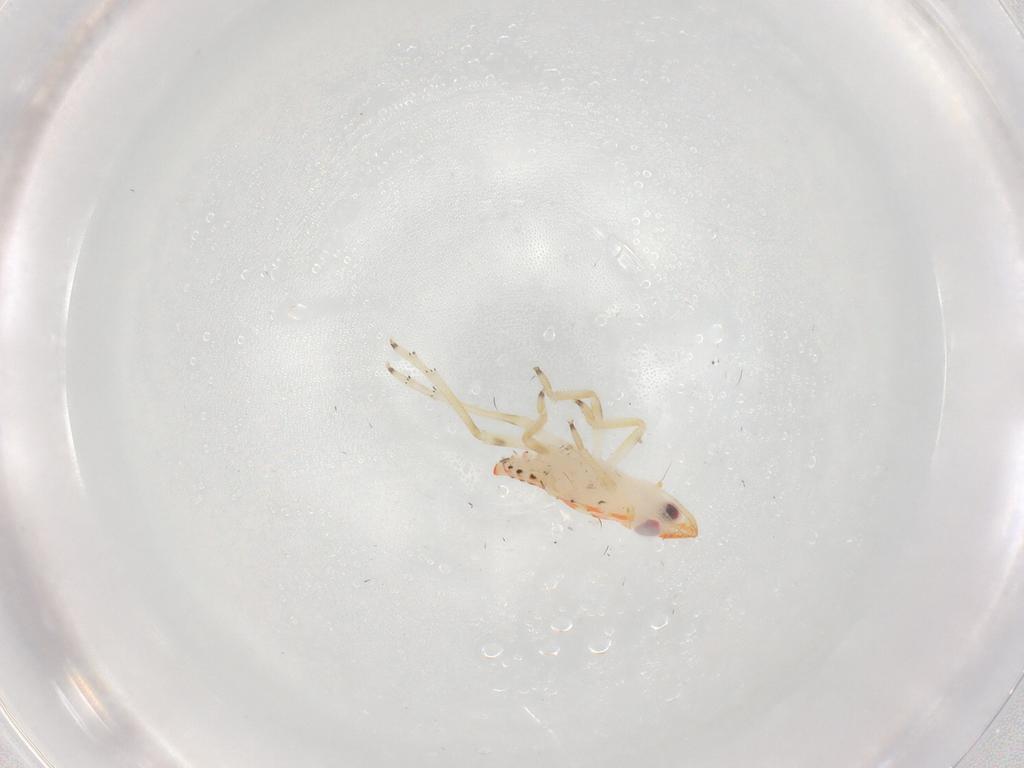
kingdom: Animalia
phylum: Arthropoda
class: Insecta
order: Hemiptera
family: Tropiduchidae
